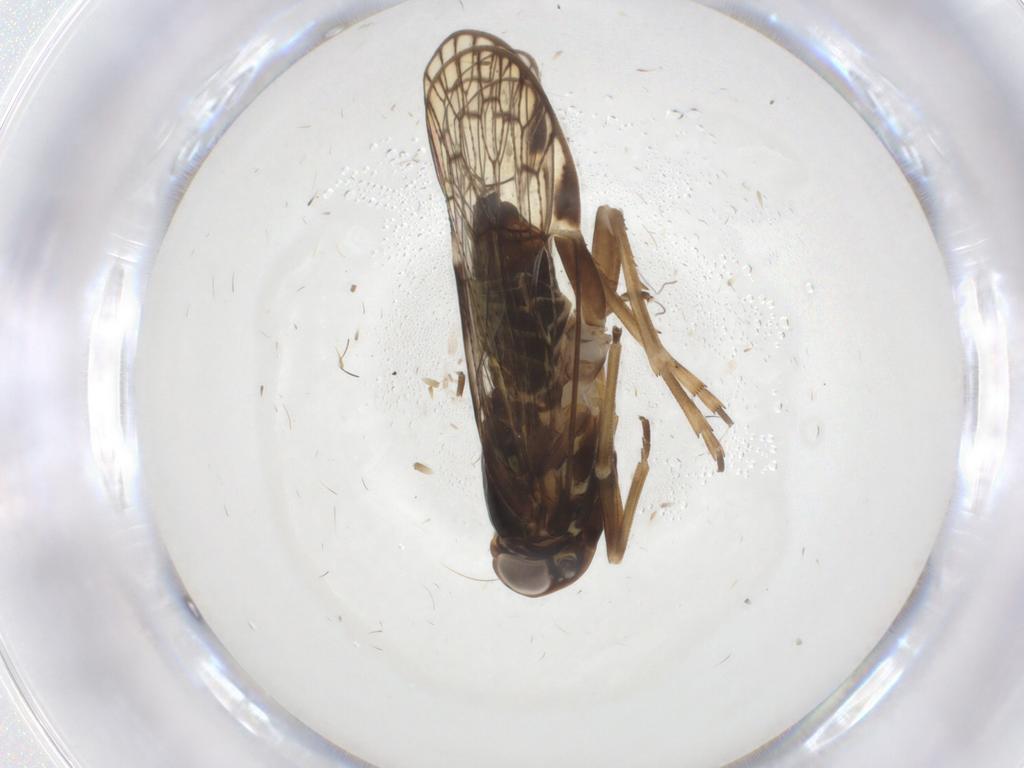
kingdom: Animalia
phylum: Arthropoda
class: Insecta
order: Hemiptera
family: Cixiidae
